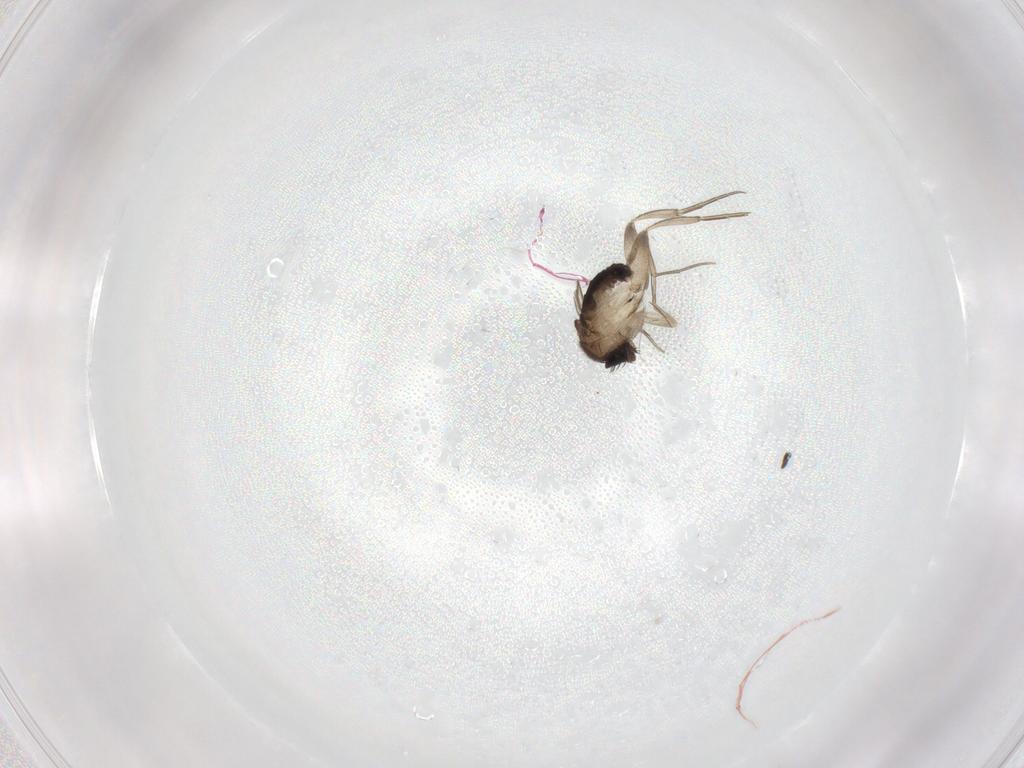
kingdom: Animalia
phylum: Arthropoda
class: Insecta
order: Diptera
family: Phoridae
